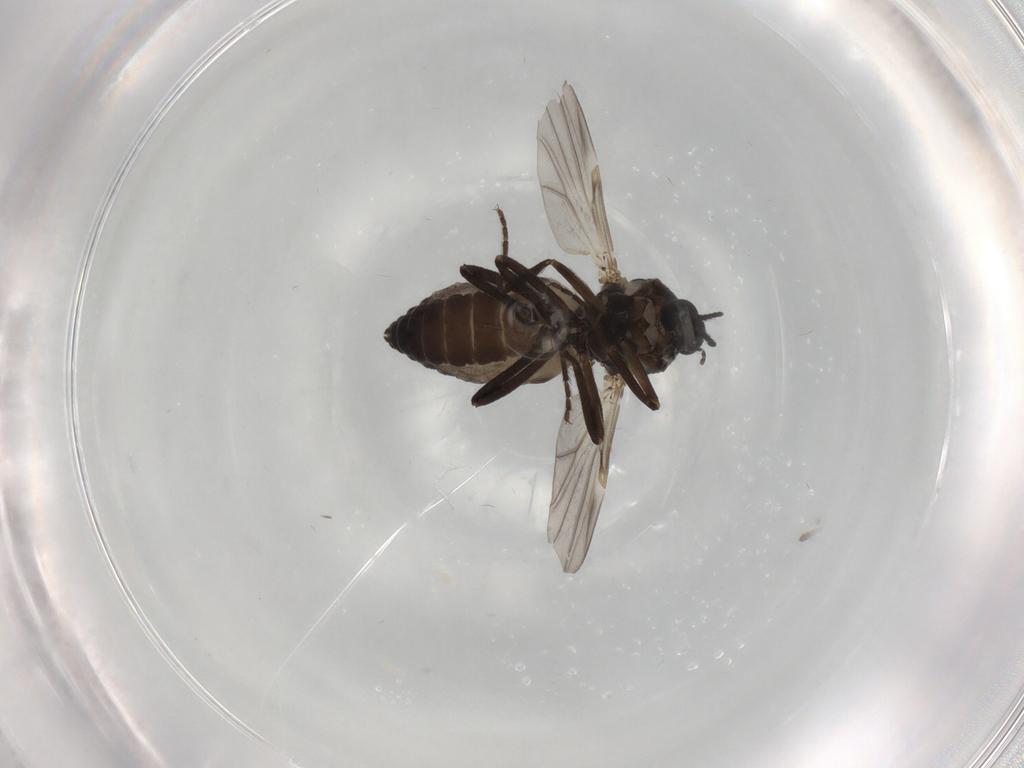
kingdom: Animalia
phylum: Arthropoda
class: Insecta
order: Diptera
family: Ceratopogonidae
